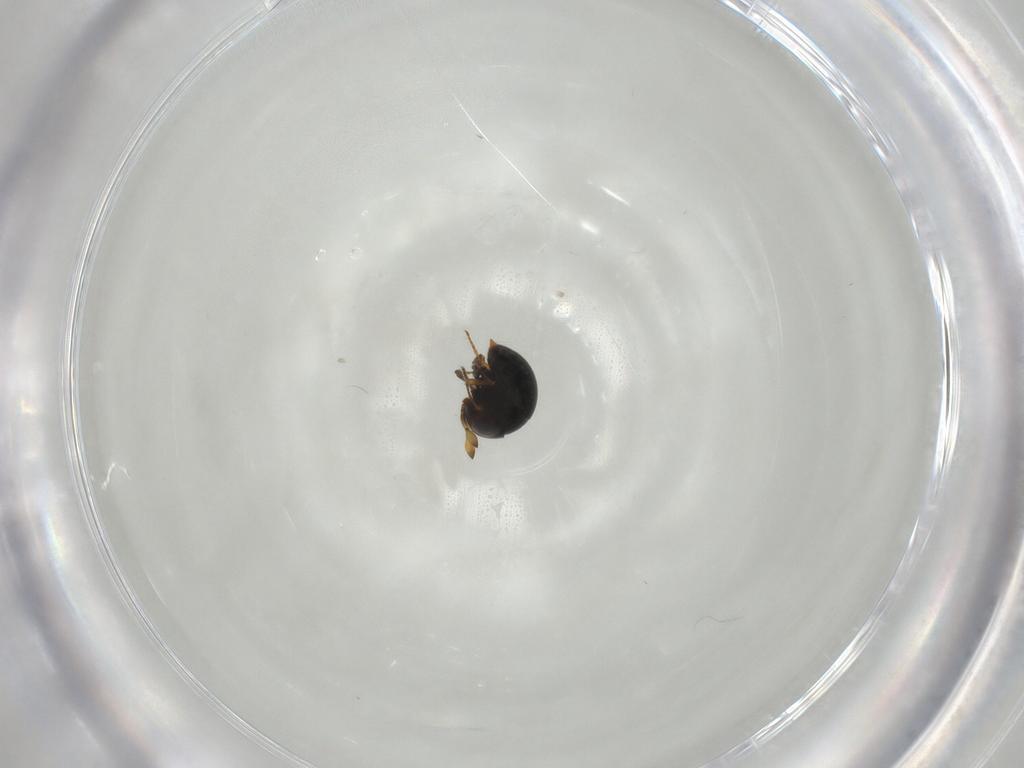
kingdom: Animalia
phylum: Arthropoda
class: Insecta
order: Hymenoptera
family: Scelionidae
